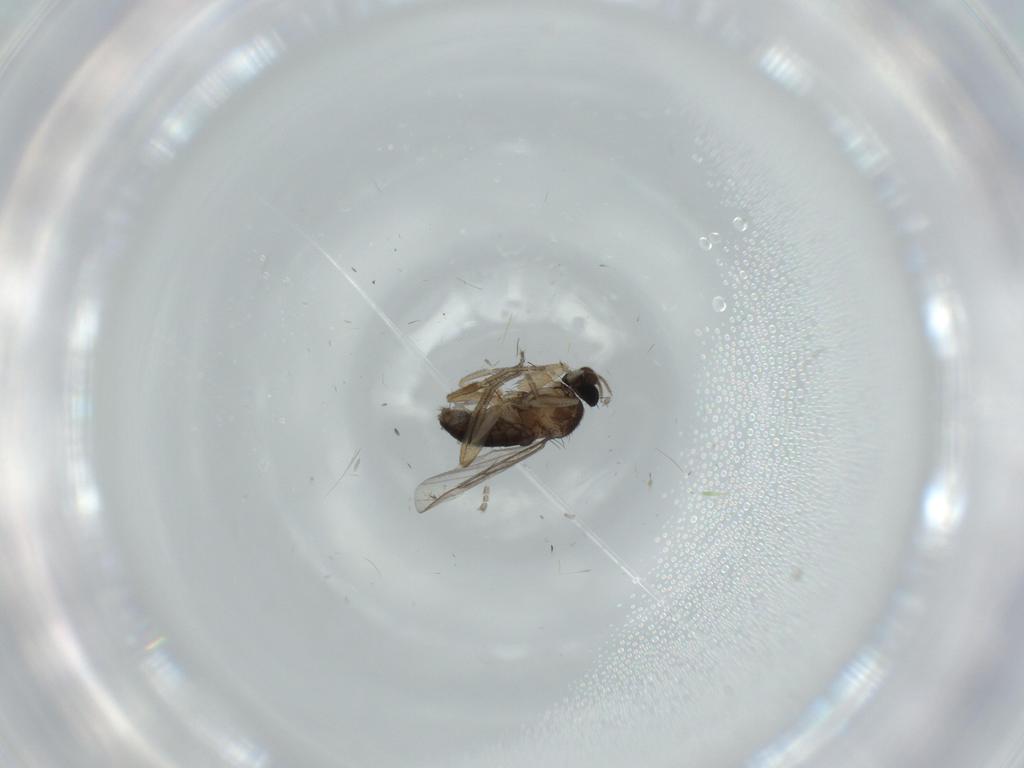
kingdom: Animalia
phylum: Arthropoda
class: Insecta
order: Diptera
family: Phoridae
